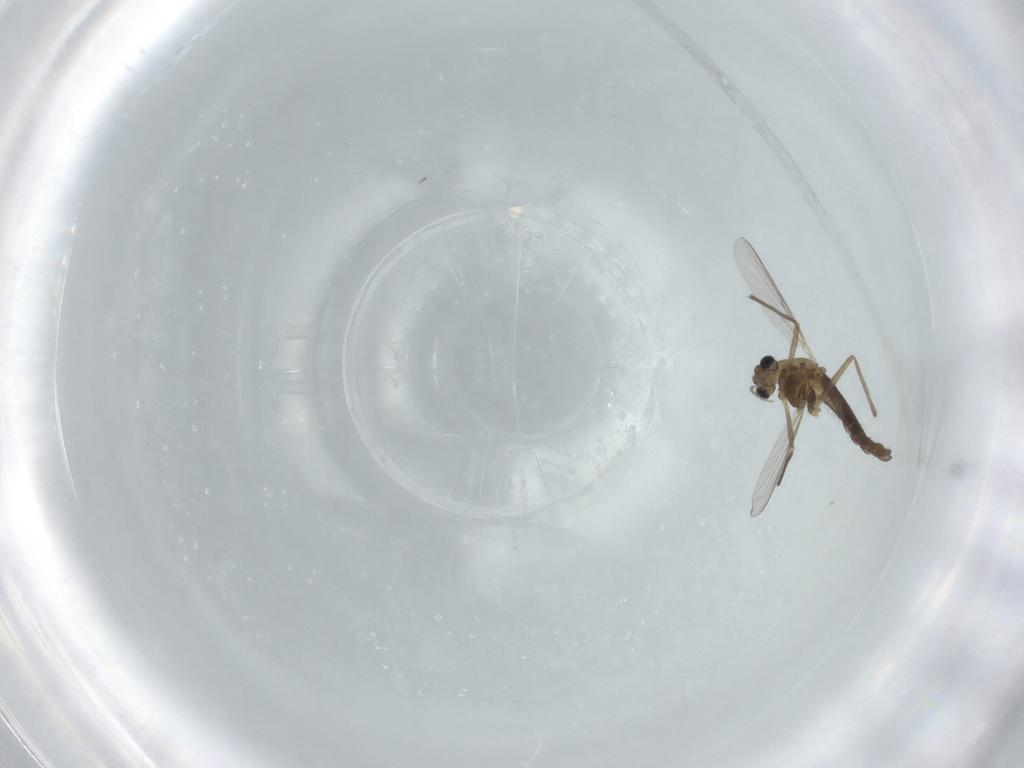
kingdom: Animalia
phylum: Arthropoda
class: Insecta
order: Diptera
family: Chironomidae
